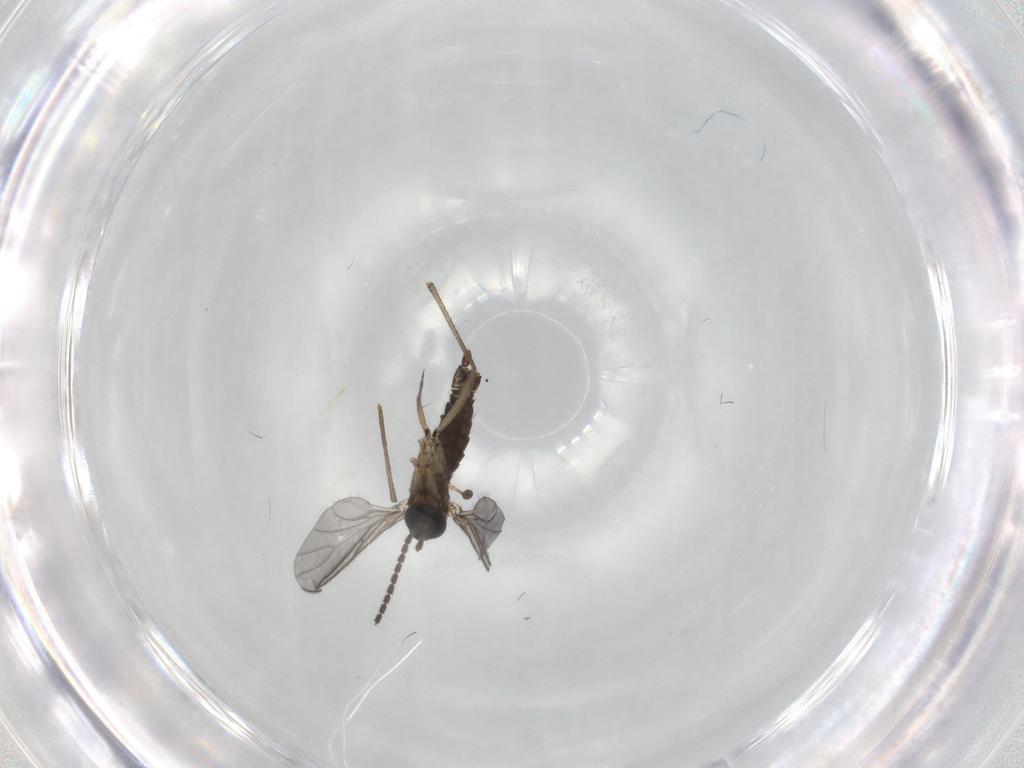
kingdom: Animalia
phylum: Arthropoda
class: Insecta
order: Diptera
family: Sciaridae
